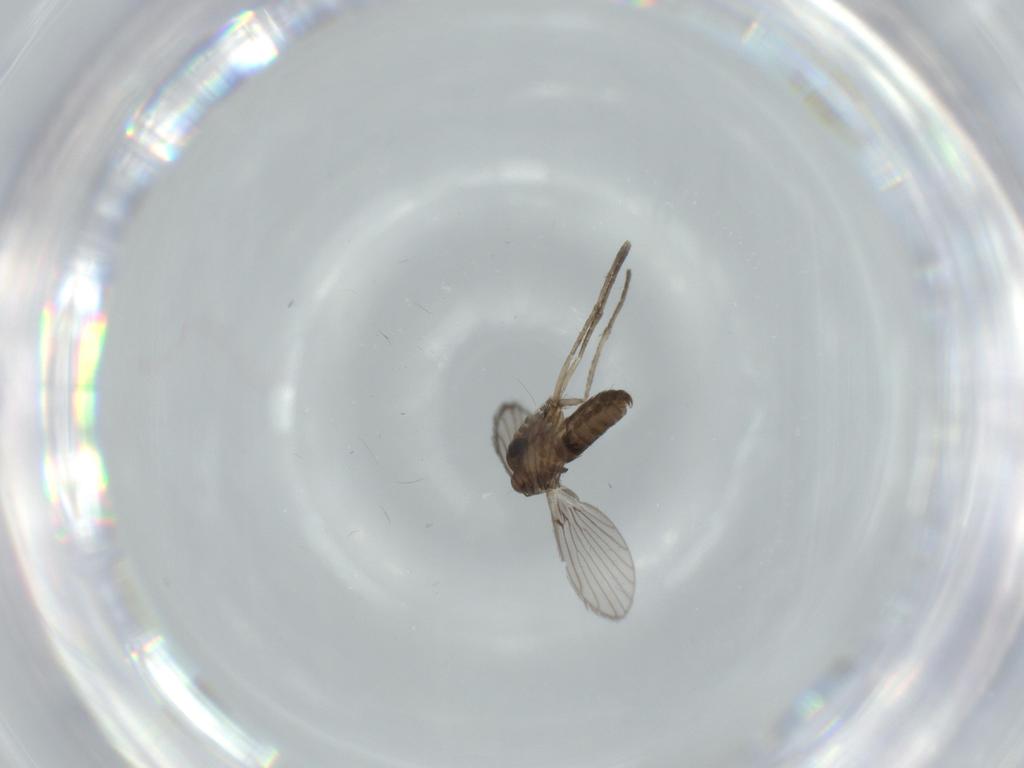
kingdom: Animalia
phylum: Arthropoda
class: Insecta
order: Diptera
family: Psychodidae
